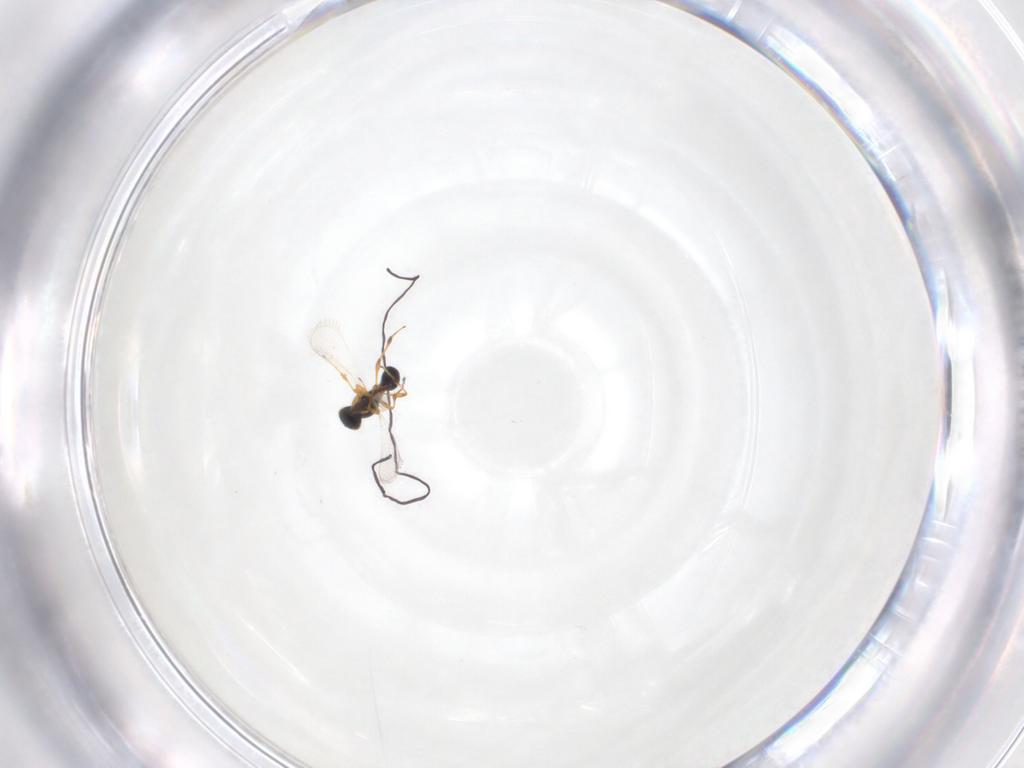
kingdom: Animalia
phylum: Arthropoda
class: Insecta
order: Hymenoptera
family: Platygastridae
